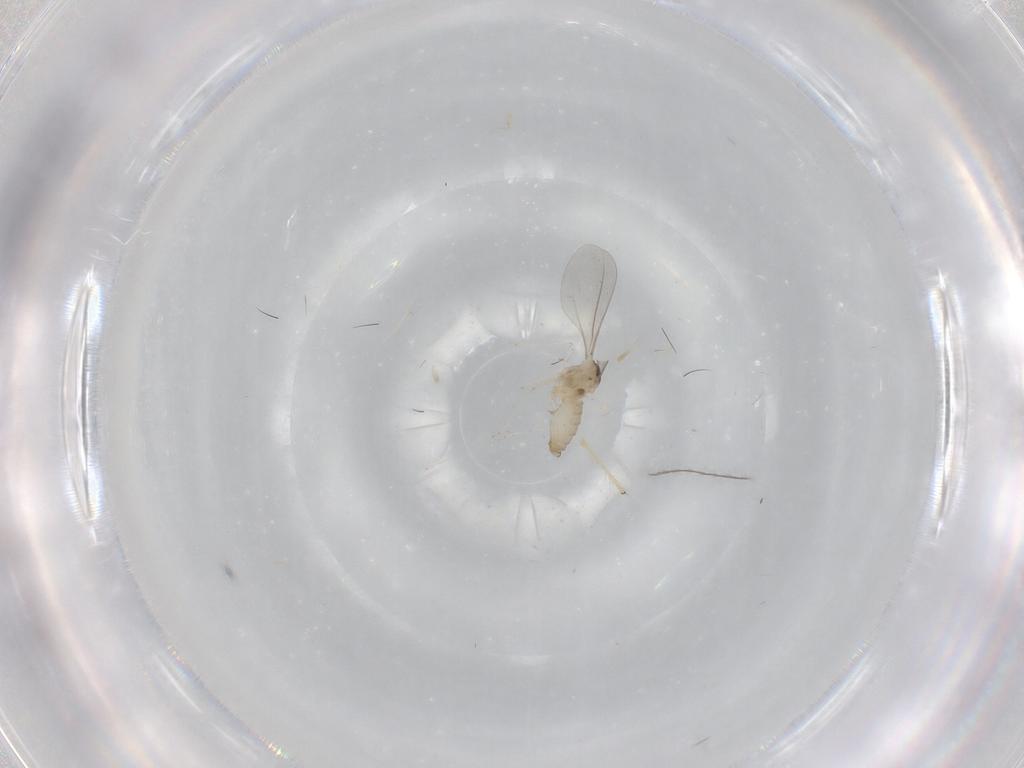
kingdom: Animalia
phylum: Arthropoda
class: Insecta
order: Diptera
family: Cecidomyiidae
